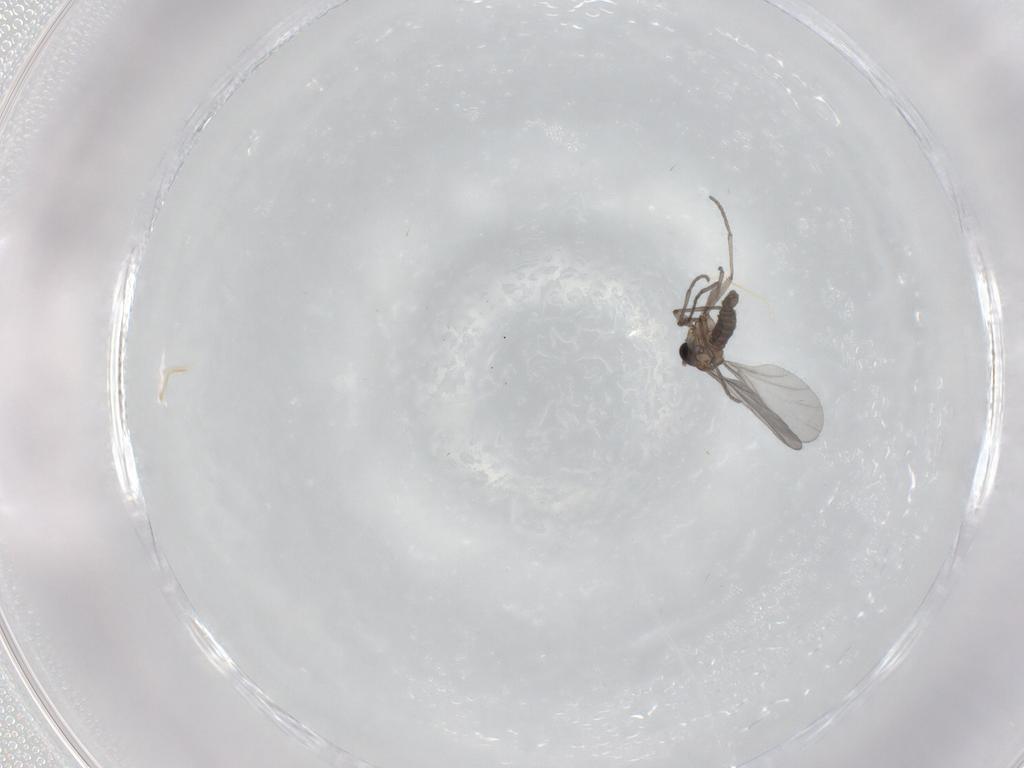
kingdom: Animalia
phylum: Arthropoda
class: Insecta
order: Diptera
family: Sciaridae
